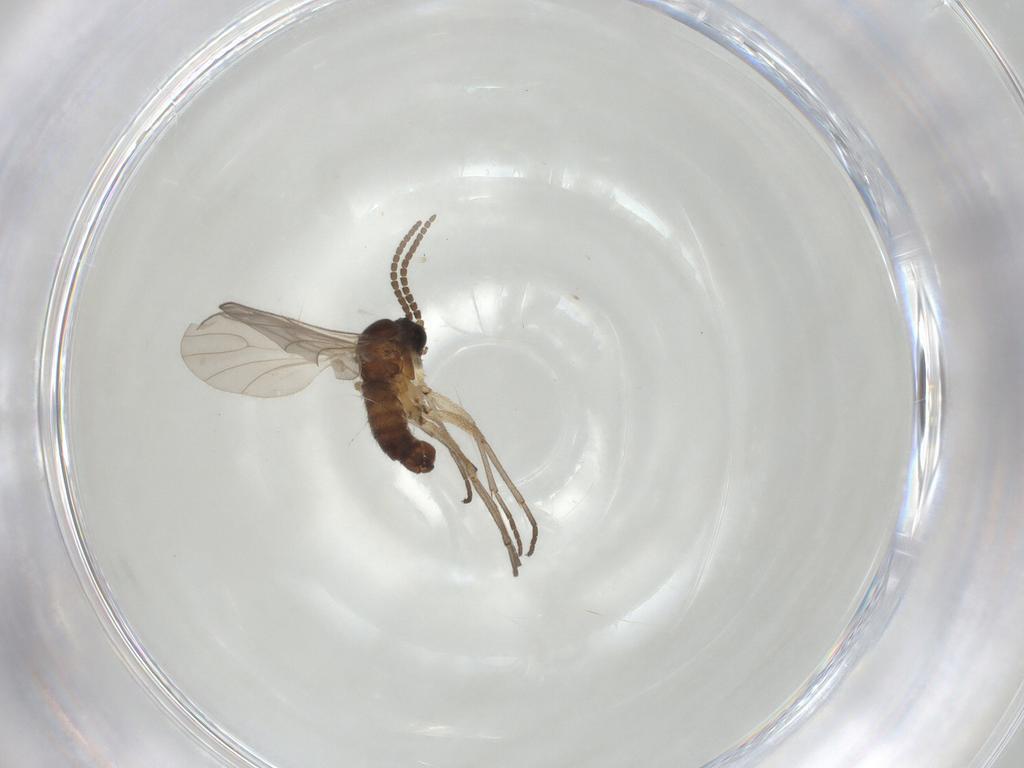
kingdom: Animalia
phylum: Arthropoda
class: Insecta
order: Diptera
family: Sciaridae
